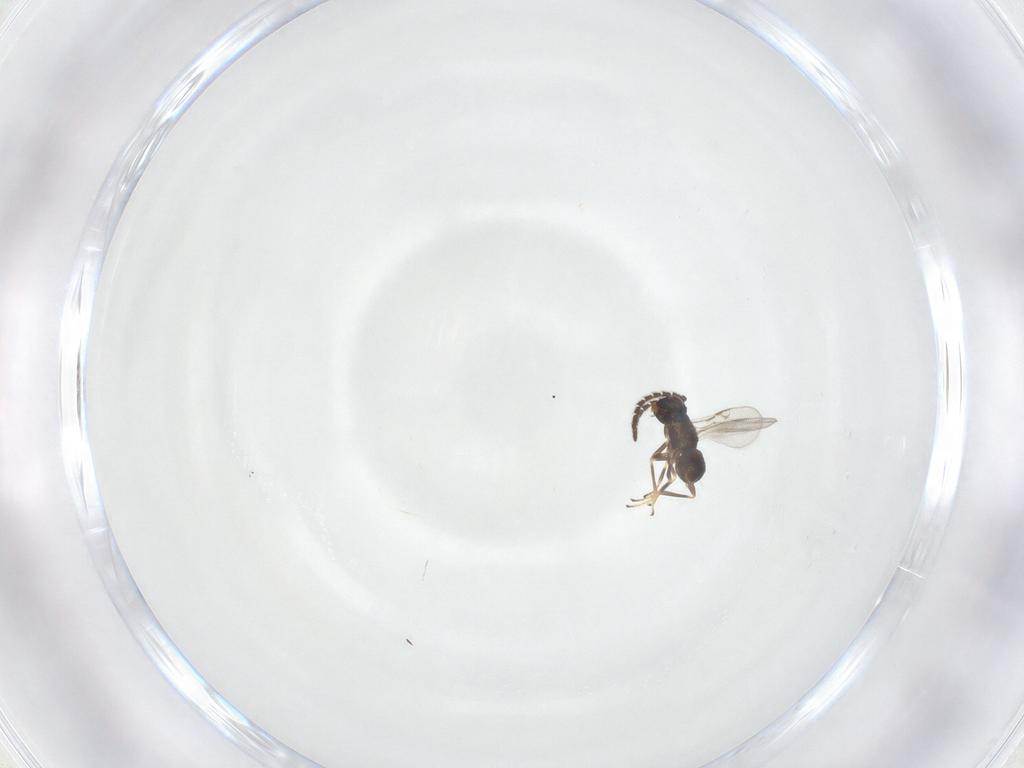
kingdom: Animalia
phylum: Arthropoda
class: Insecta
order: Hymenoptera
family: Encyrtidae
